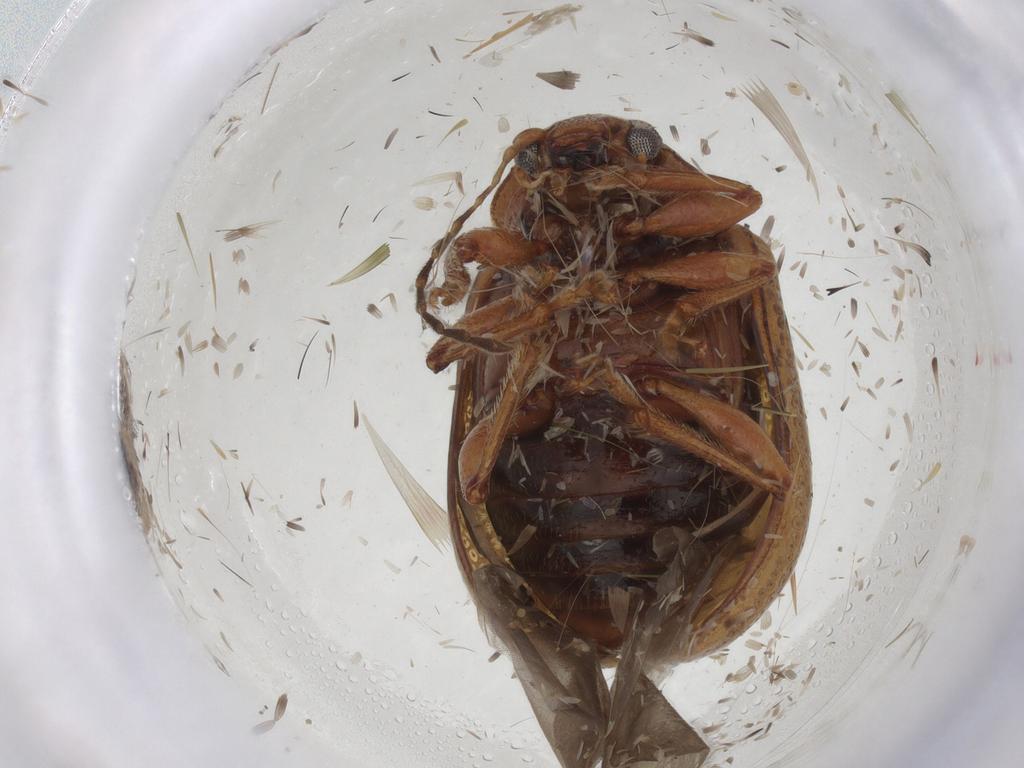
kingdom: Animalia
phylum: Arthropoda
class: Insecta
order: Coleoptera
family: Chrysomelidae
